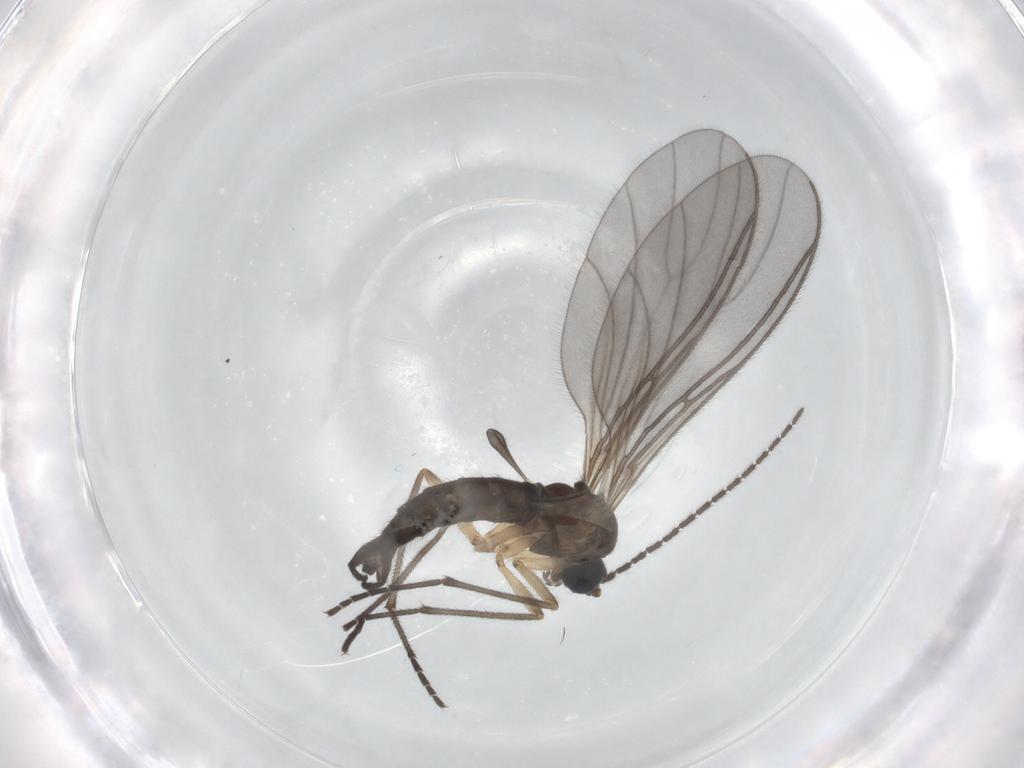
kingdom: Animalia
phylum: Arthropoda
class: Insecta
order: Diptera
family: Sciaridae
